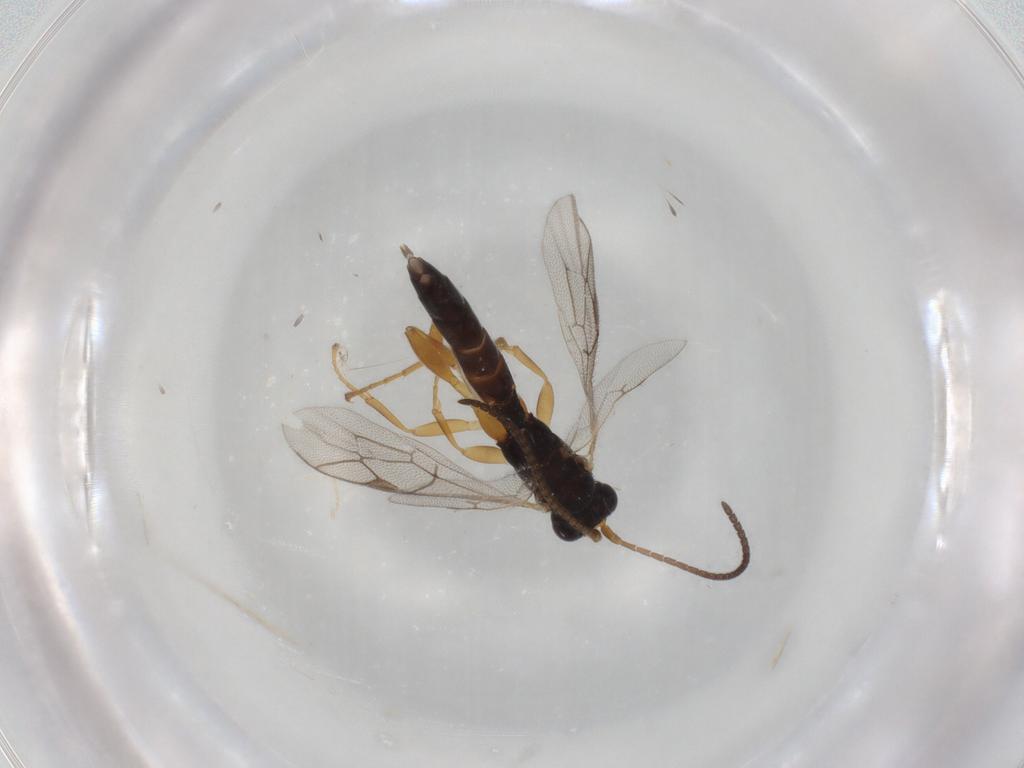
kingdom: Animalia
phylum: Arthropoda
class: Insecta
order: Hymenoptera
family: Ichneumonidae
